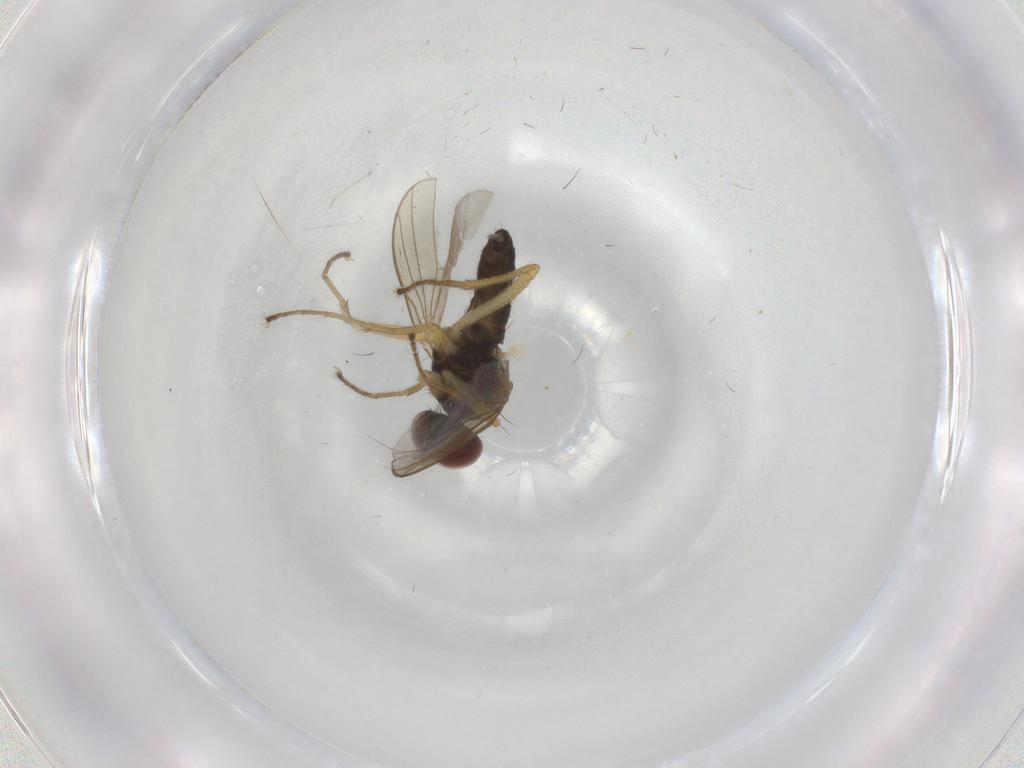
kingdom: Animalia
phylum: Arthropoda
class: Insecta
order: Diptera
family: Dolichopodidae
